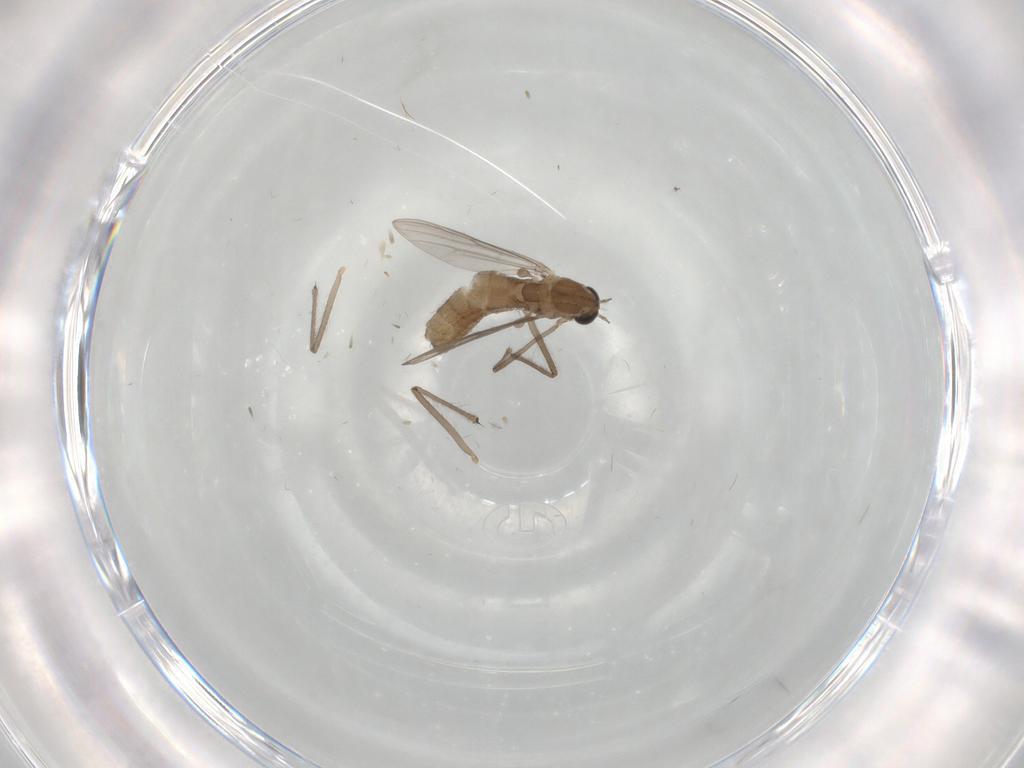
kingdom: Animalia
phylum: Arthropoda
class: Insecta
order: Diptera
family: Chironomidae
